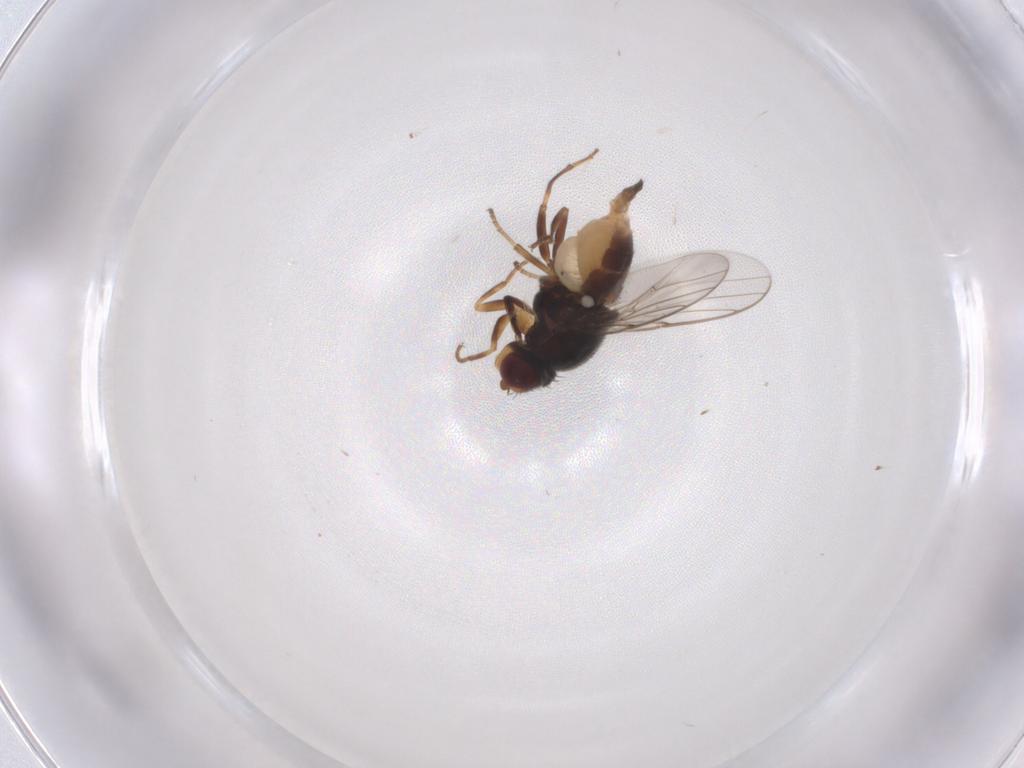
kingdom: Animalia
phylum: Arthropoda
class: Insecta
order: Diptera
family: Chloropidae
